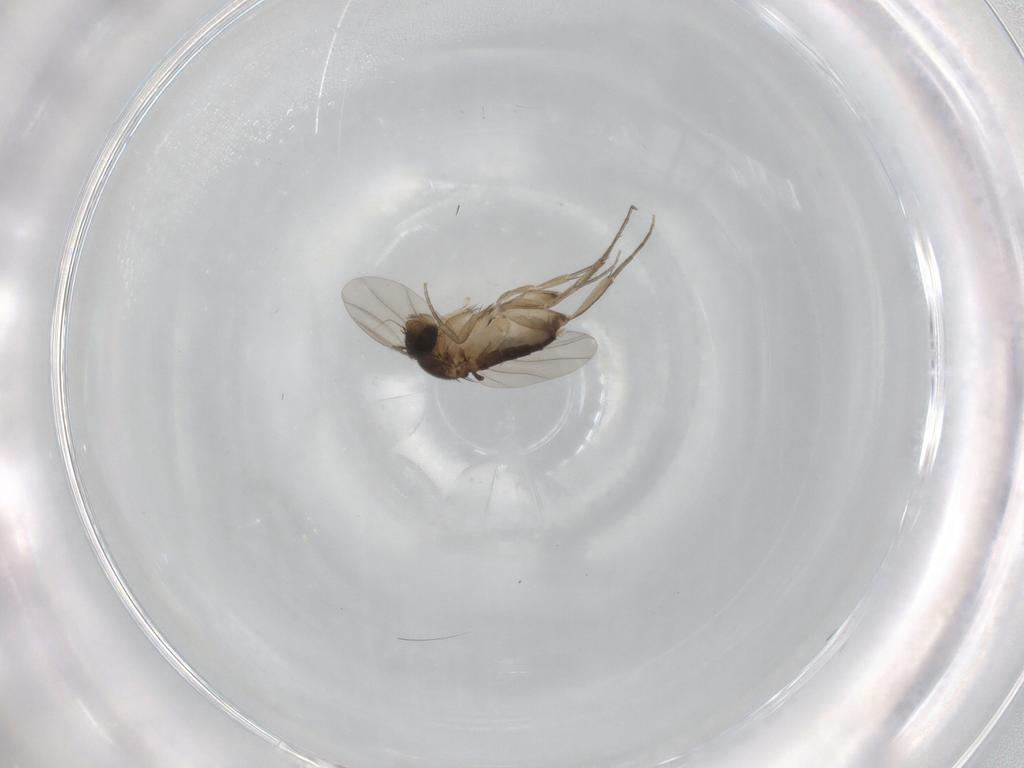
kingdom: Animalia
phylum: Arthropoda
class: Insecta
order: Diptera
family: Phoridae
